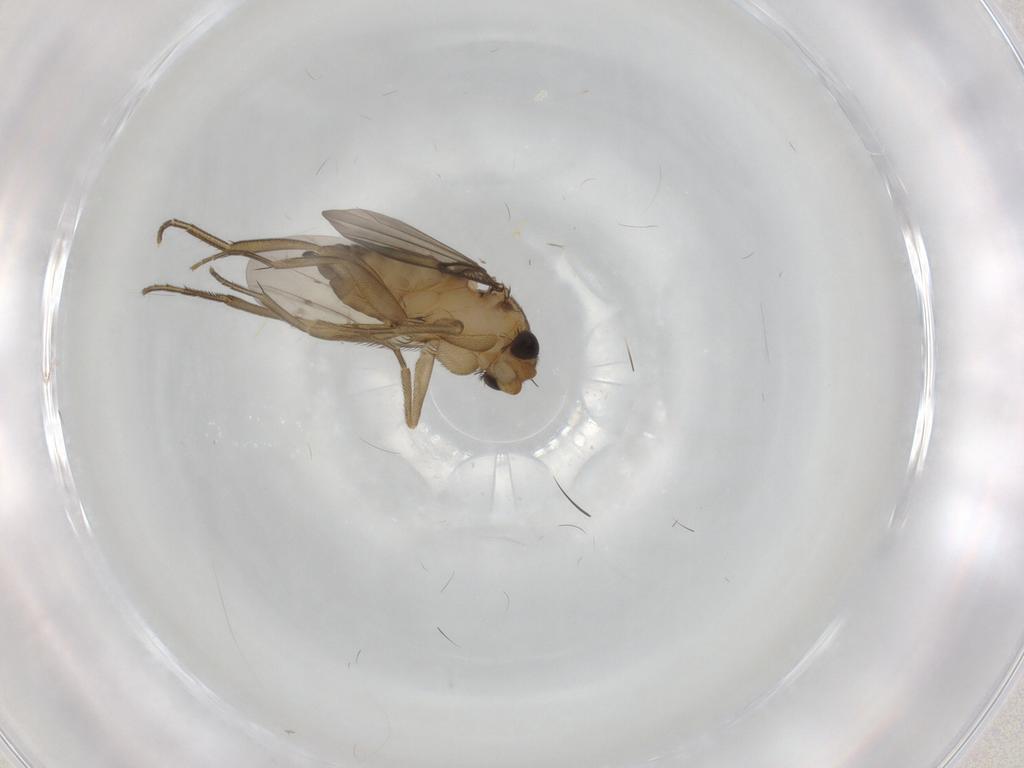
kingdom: Animalia
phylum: Arthropoda
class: Insecta
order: Diptera
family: Phoridae
